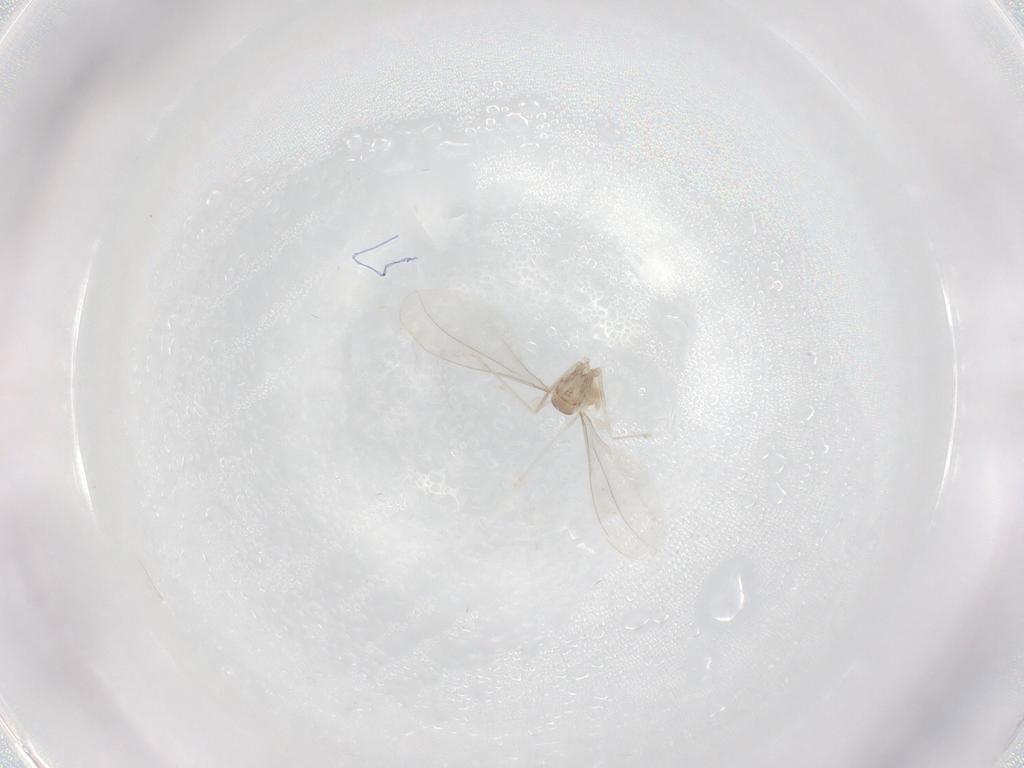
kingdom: Animalia
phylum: Arthropoda
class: Insecta
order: Diptera
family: Cecidomyiidae
